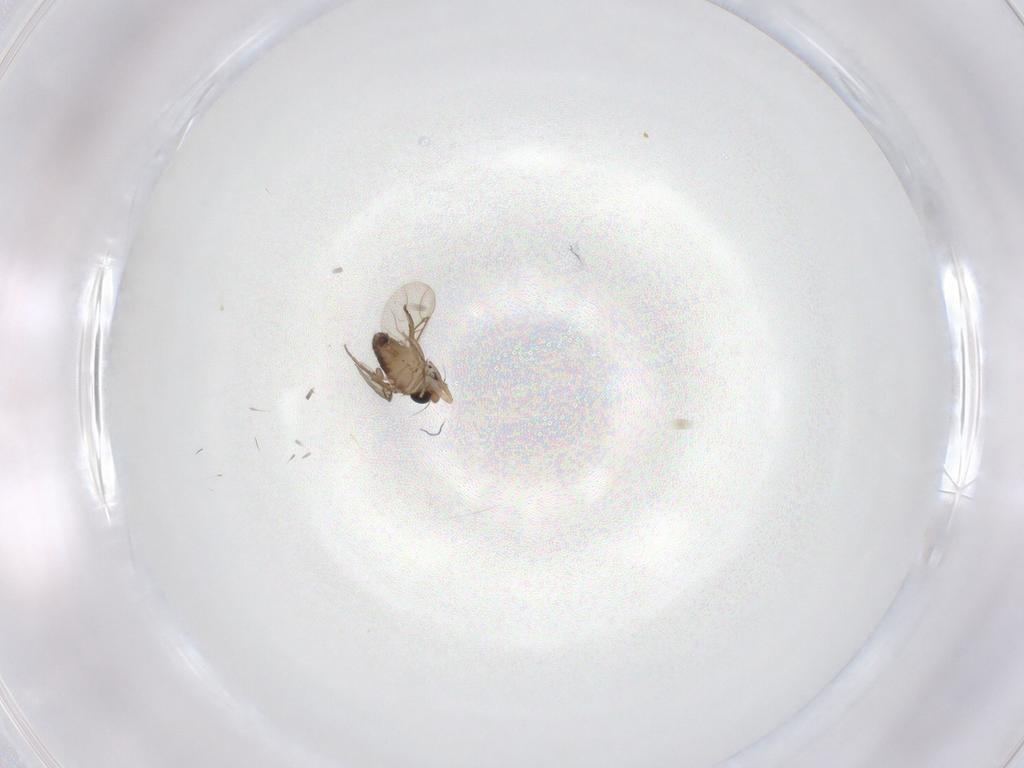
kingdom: Animalia
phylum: Arthropoda
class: Insecta
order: Diptera
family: Phoridae
